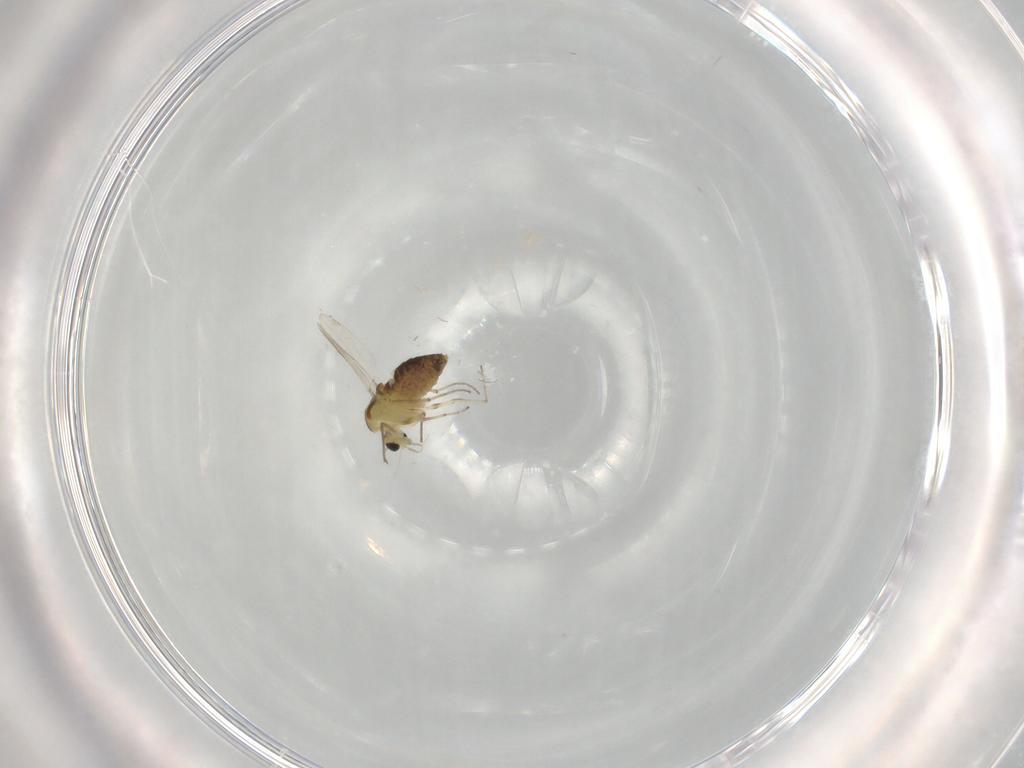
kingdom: Animalia
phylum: Arthropoda
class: Insecta
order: Diptera
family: Chironomidae
